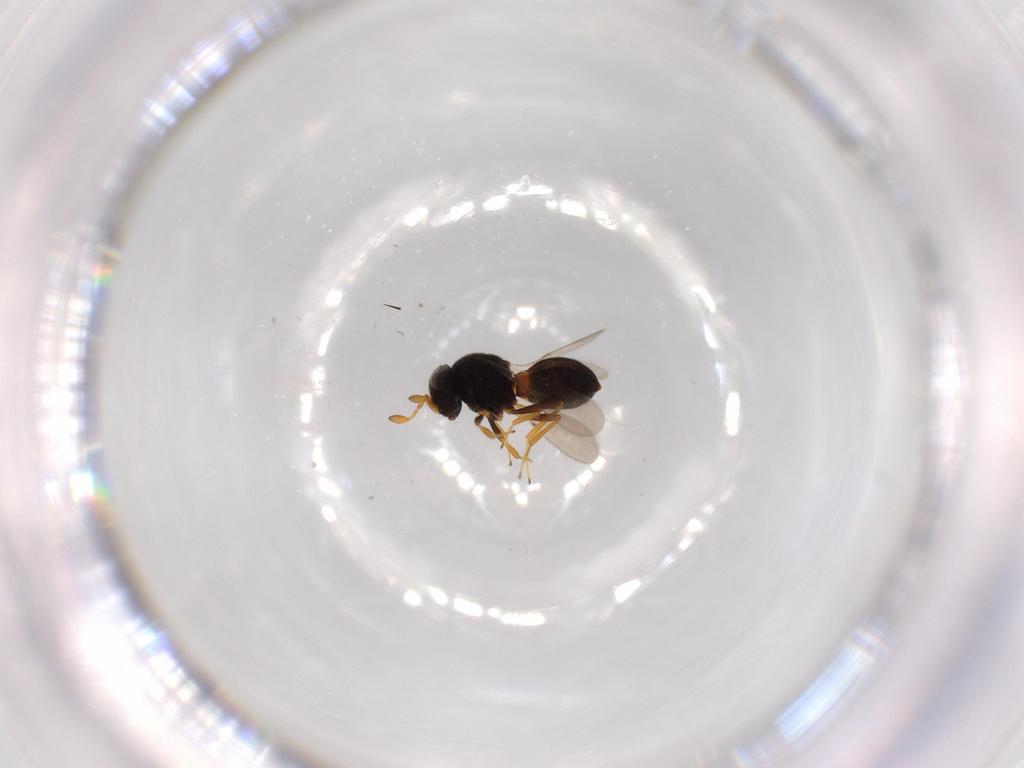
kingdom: Animalia
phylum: Arthropoda
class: Insecta
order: Hymenoptera
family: Scelionidae
